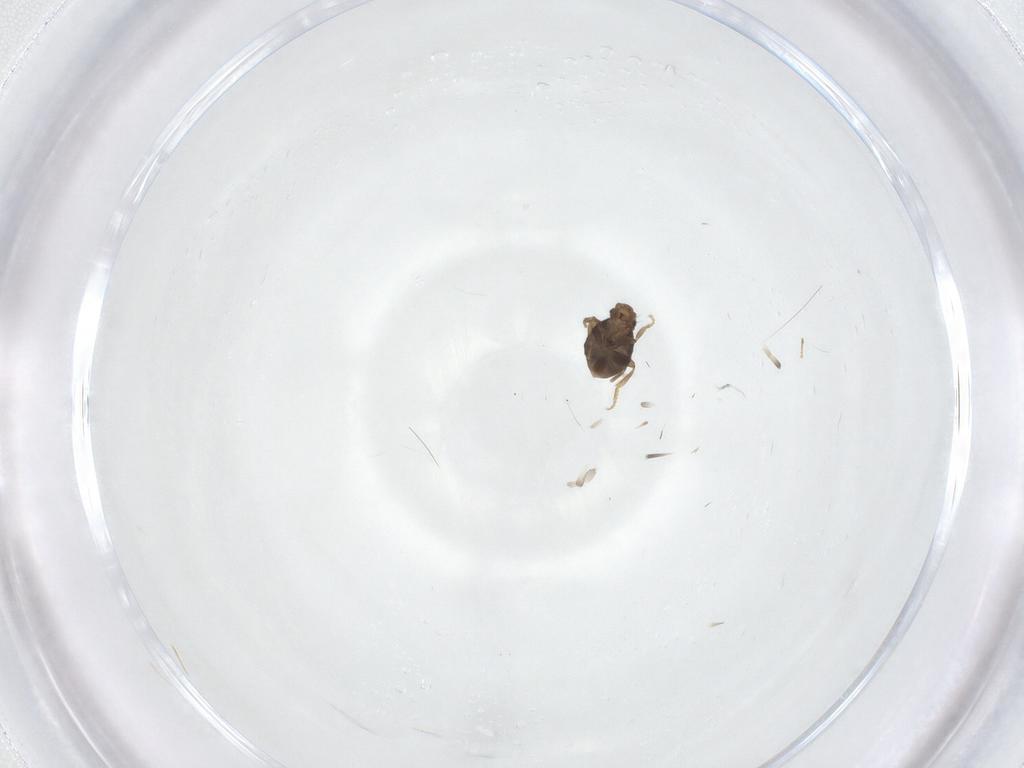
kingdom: Animalia
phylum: Arthropoda
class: Insecta
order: Diptera
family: Phoridae
